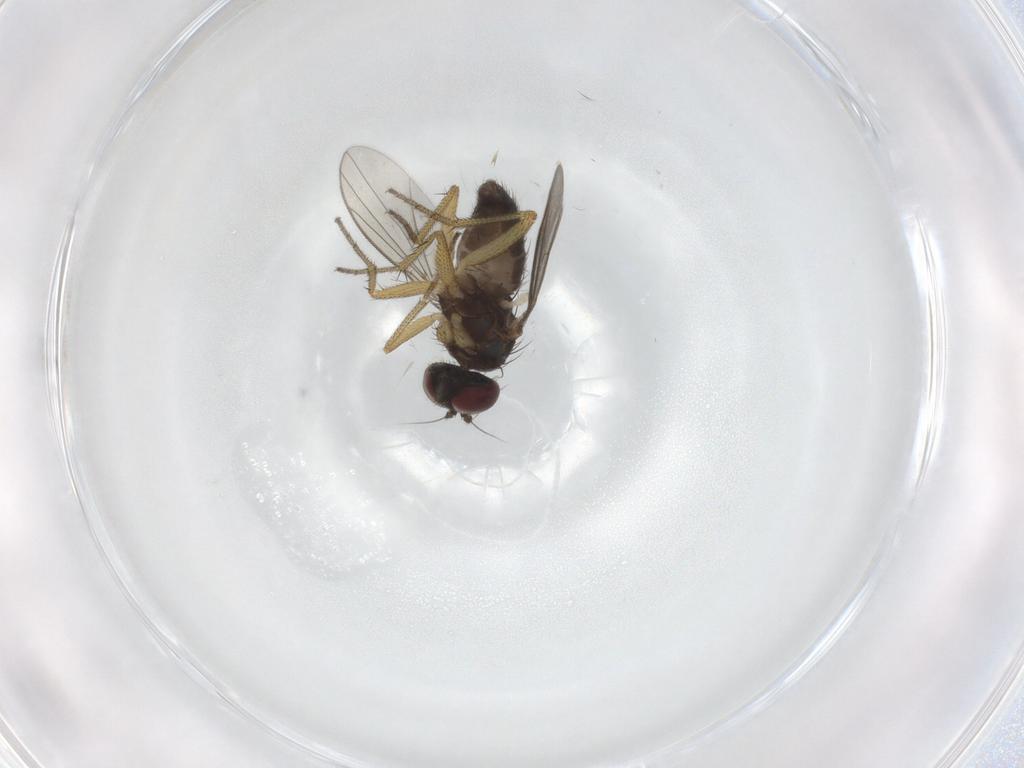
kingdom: Animalia
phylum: Arthropoda
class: Insecta
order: Diptera
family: Dolichopodidae
